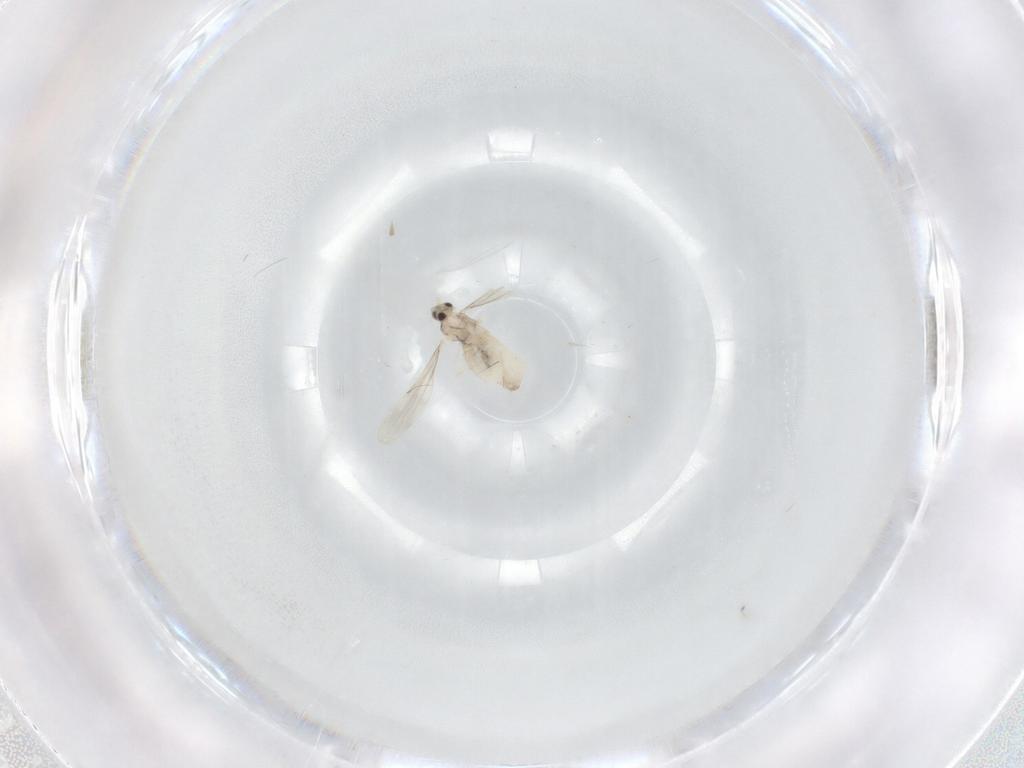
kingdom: Animalia
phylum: Arthropoda
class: Insecta
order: Diptera
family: Cecidomyiidae
